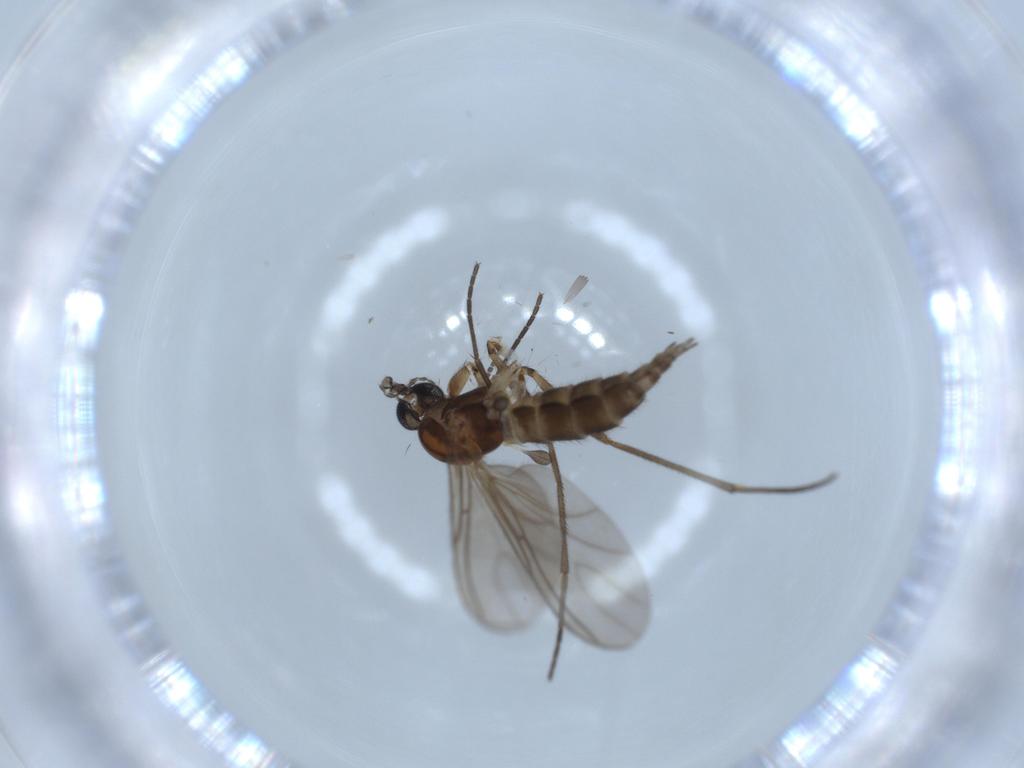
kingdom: Animalia
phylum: Arthropoda
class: Insecta
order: Diptera
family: Sciaridae
